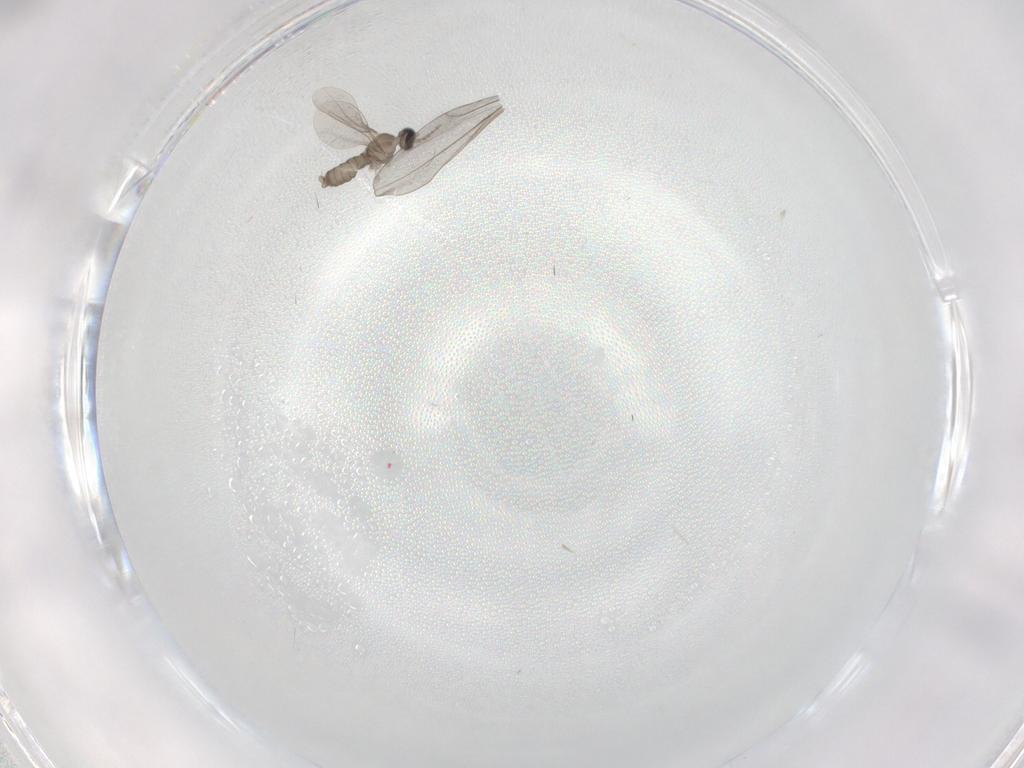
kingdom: Animalia
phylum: Arthropoda
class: Insecta
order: Diptera
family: Cecidomyiidae
